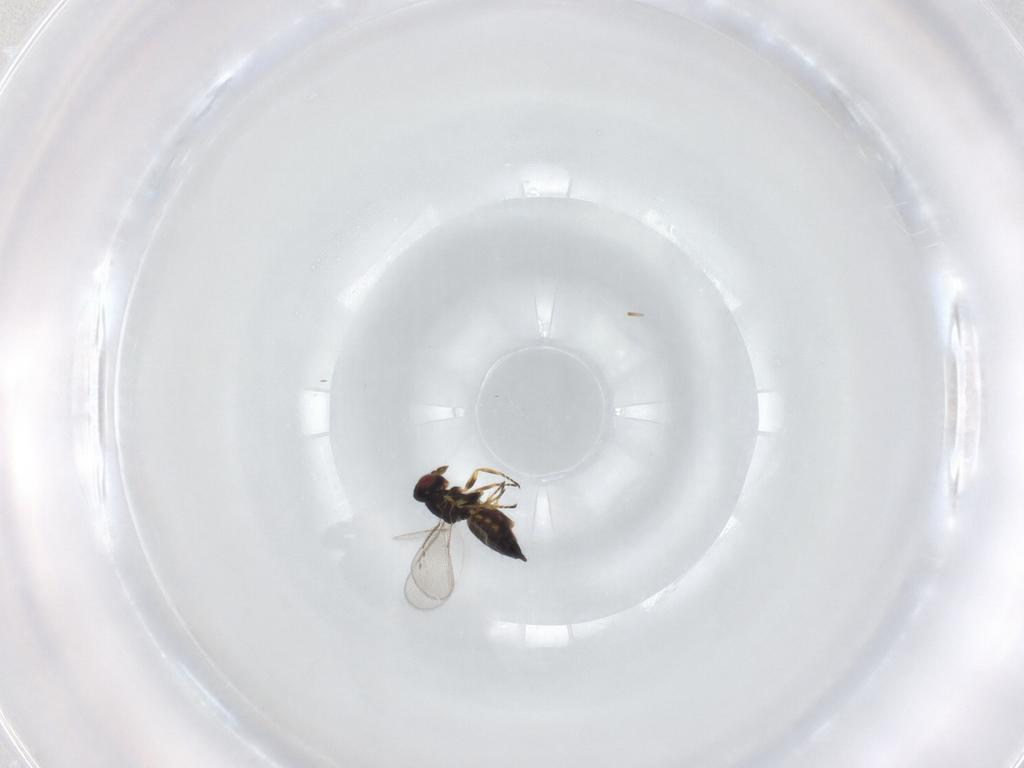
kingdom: Animalia
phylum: Arthropoda
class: Insecta
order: Hymenoptera
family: Eulophidae
